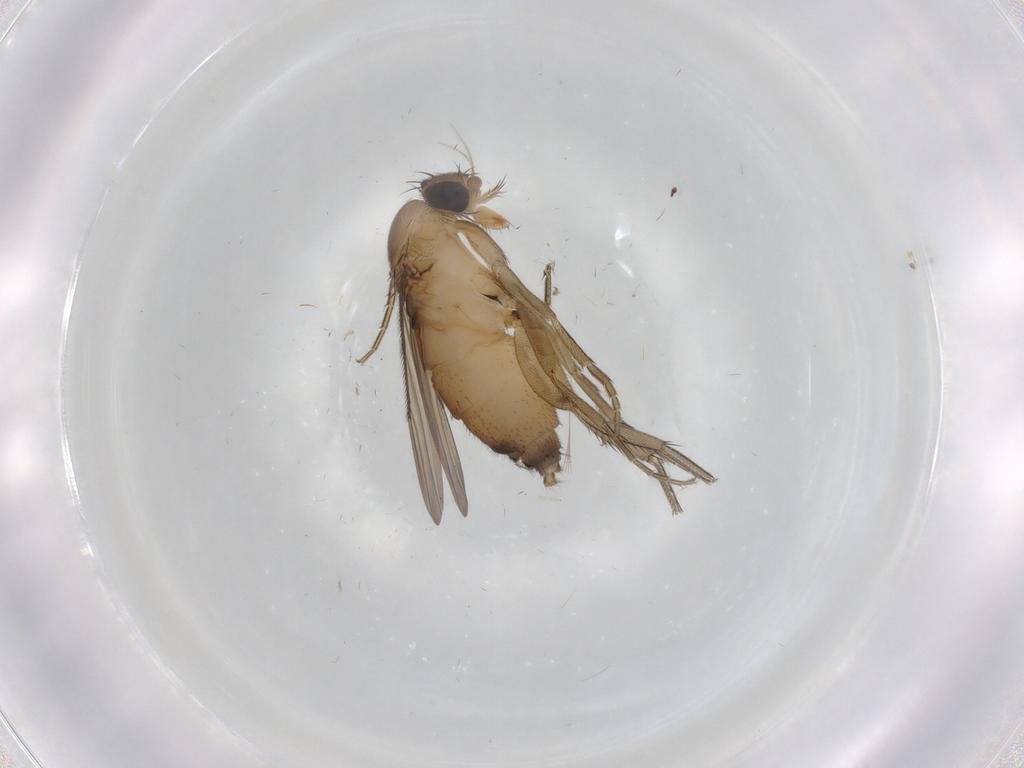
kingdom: Animalia
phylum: Arthropoda
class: Insecta
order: Diptera
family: Phoridae
